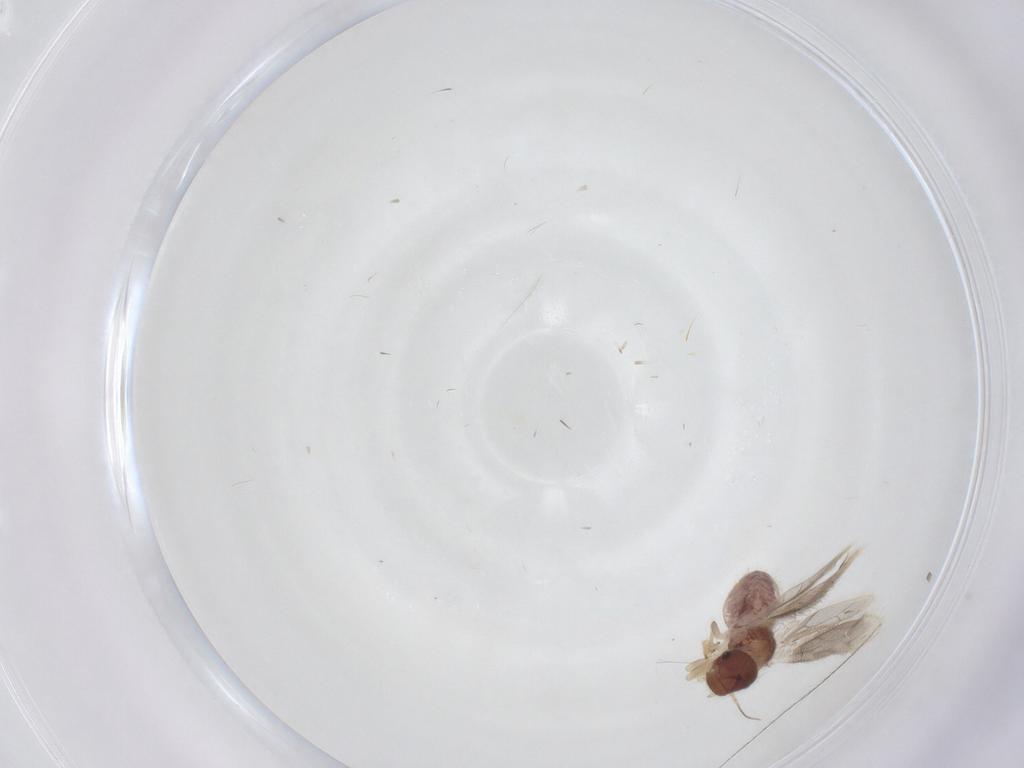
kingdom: Animalia
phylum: Arthropoda
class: Insecta
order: Psocodea
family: Archipsocidae
